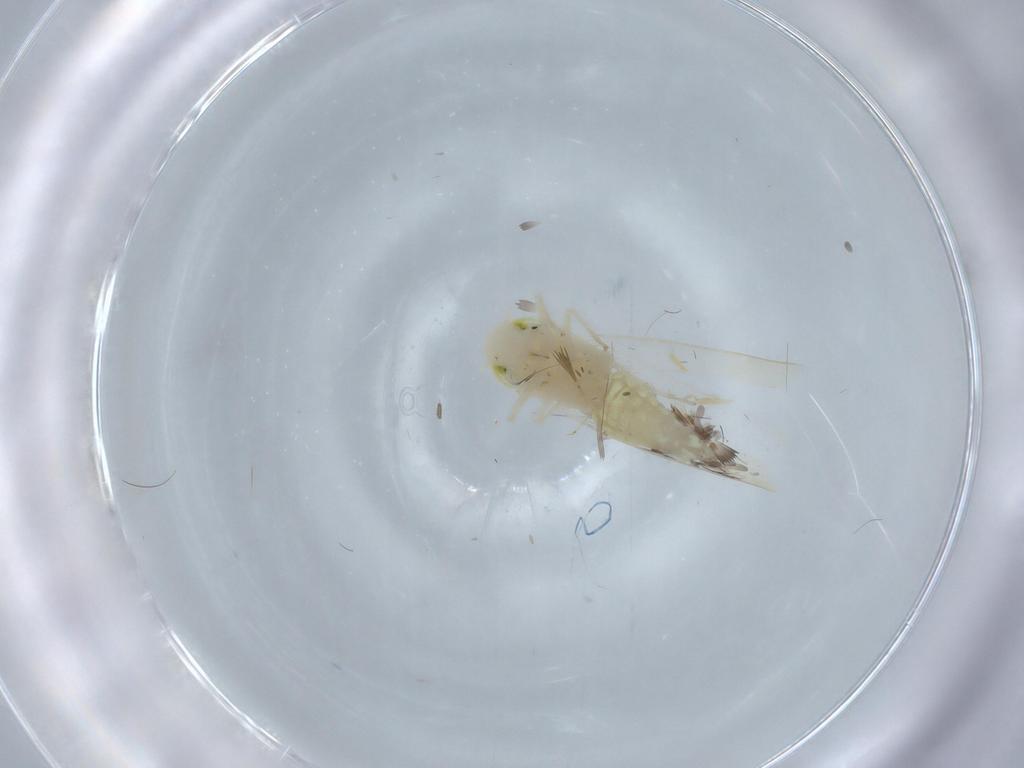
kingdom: Animalia
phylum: Arthropoda
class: Insecta
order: Hemiptera
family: Cicadellidae
